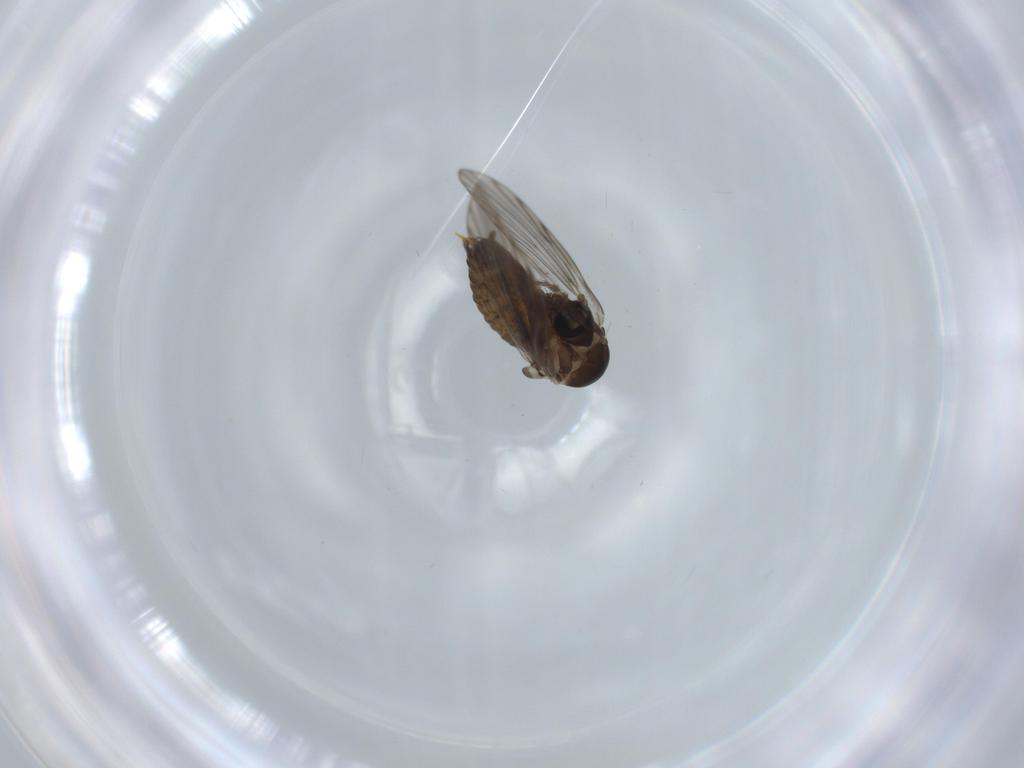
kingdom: Animalia
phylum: Arthropoda
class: Insecta
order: Diptera
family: Psychodidae
